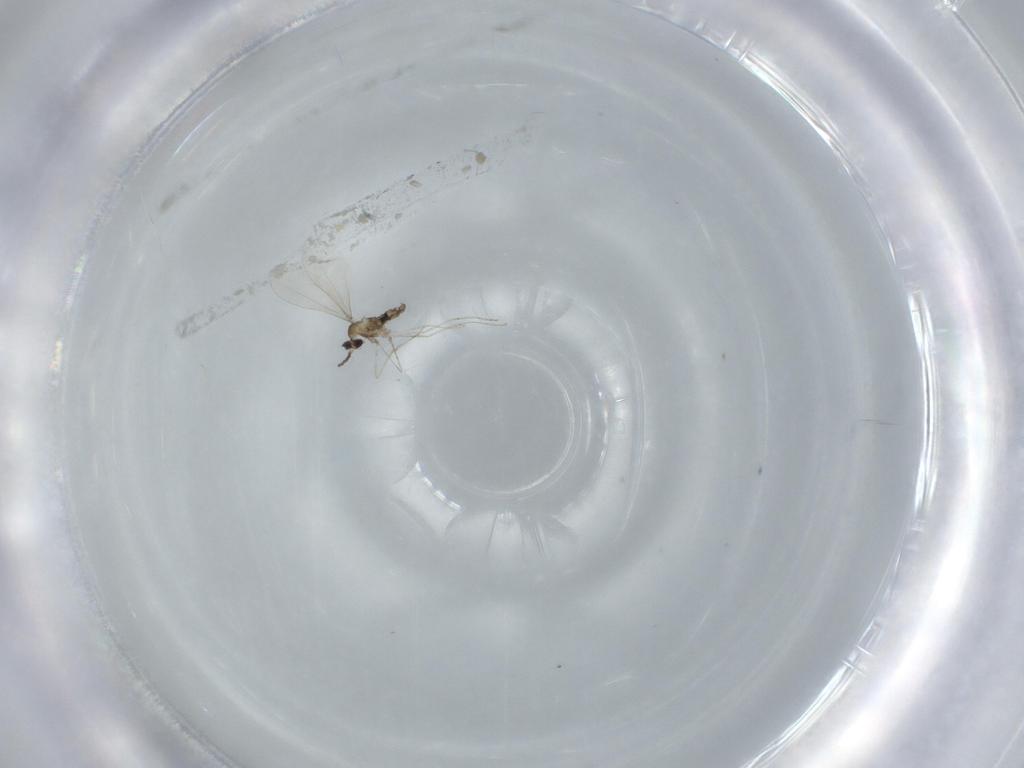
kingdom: Animalia
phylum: Arthropoda
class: Insecta
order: Diptera
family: Cecidomyiidae
